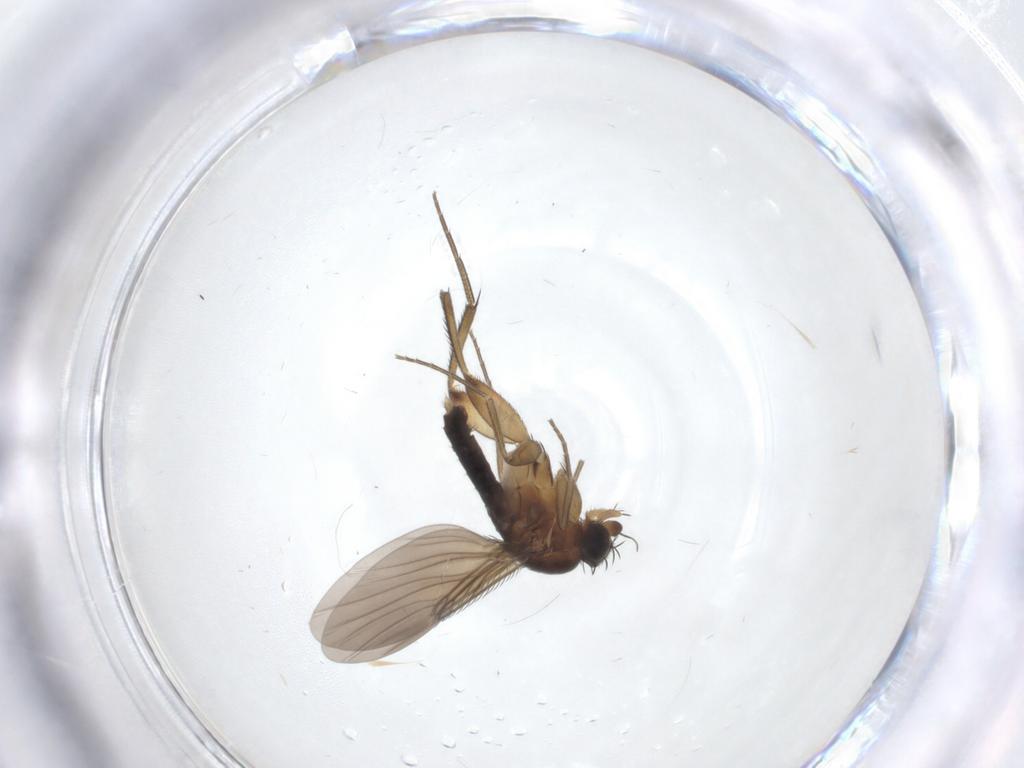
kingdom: Animalia
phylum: Arthropoda
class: Insecta
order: Diptera
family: Phoridae
